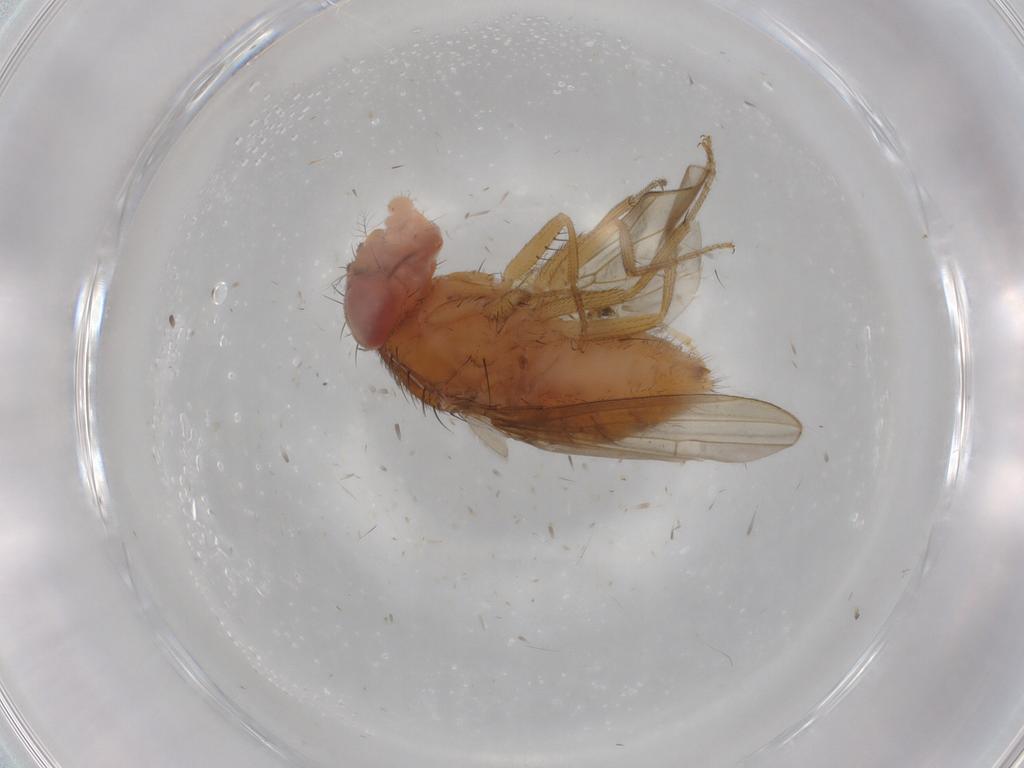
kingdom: Animalia
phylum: Arthropoda
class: Insecta
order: Diptera
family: Drosophilidae
